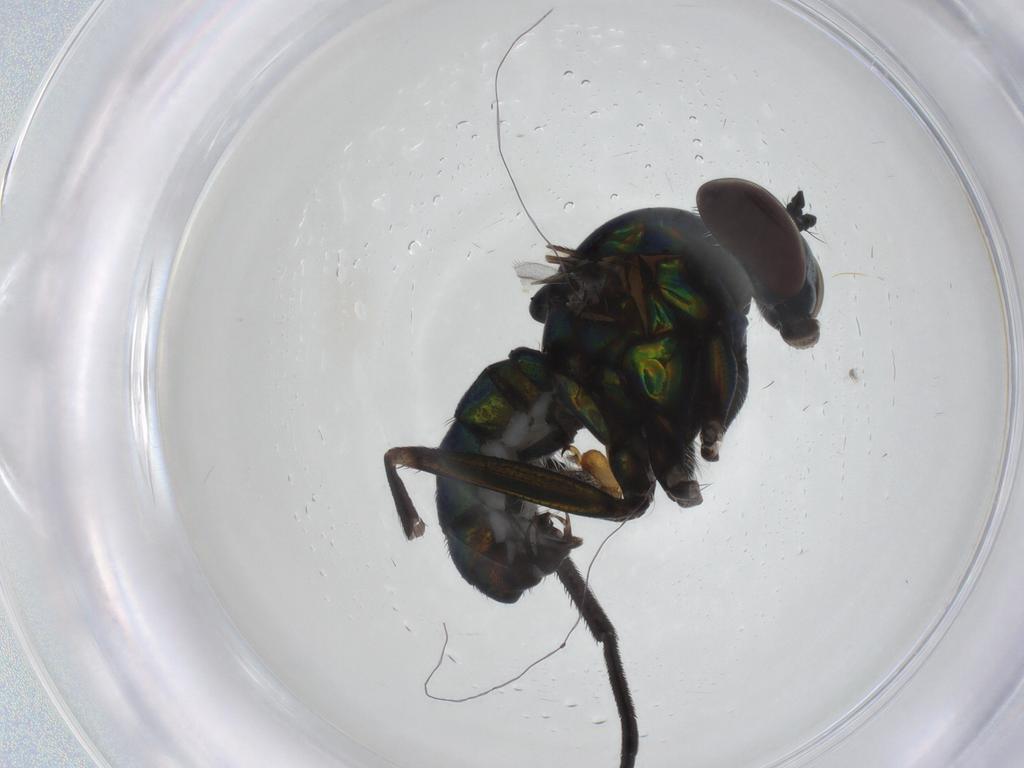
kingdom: Animalia
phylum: Arthropoda
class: Insecta
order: Diptera
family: Dolichopodidae
